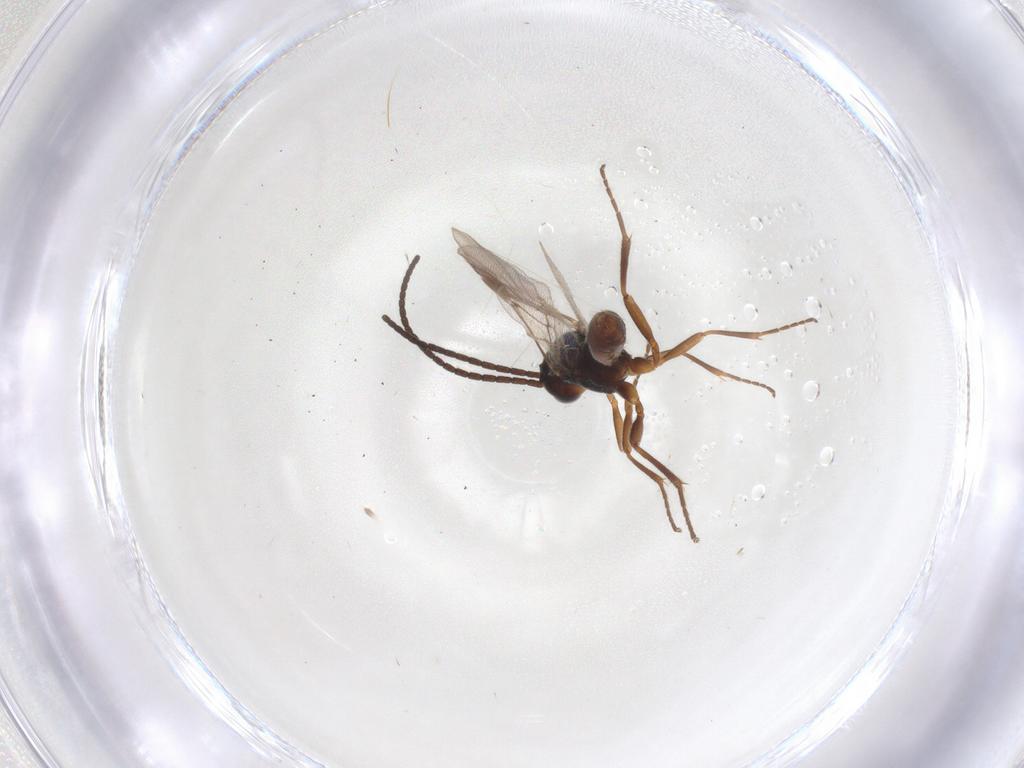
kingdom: Animalia
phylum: Arthropoda
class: Insecta
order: Hymenoptera
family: Braconidae
